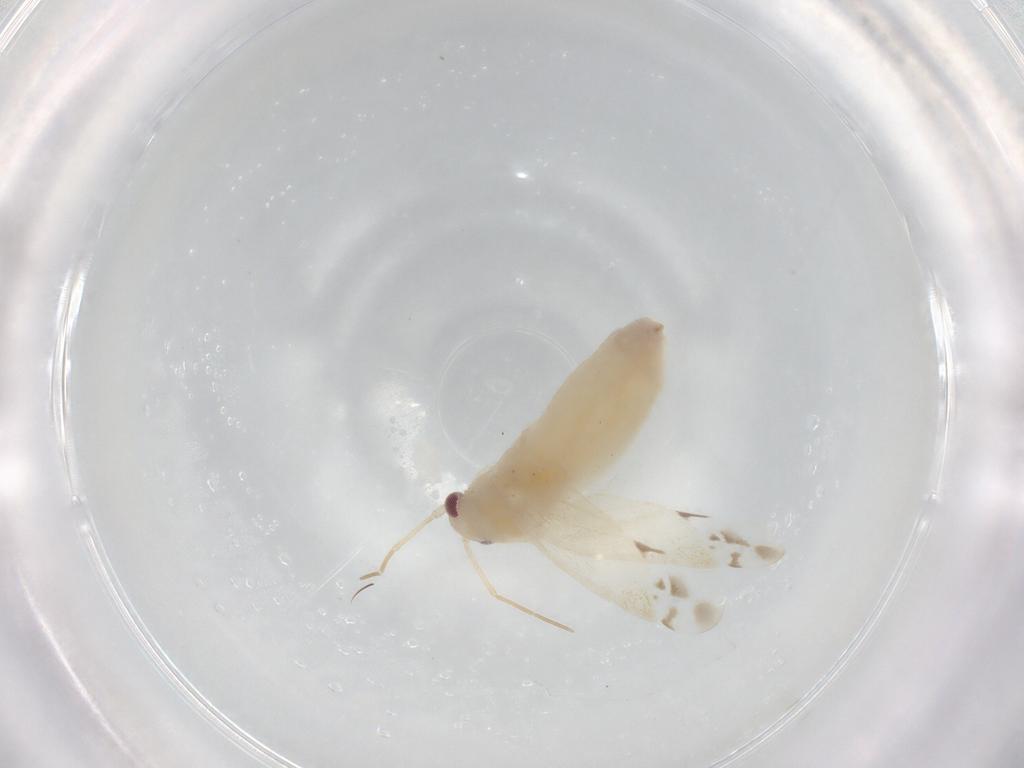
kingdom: Animalia
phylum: Arthropoda
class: Insecta
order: Hemiptera
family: Miridae
